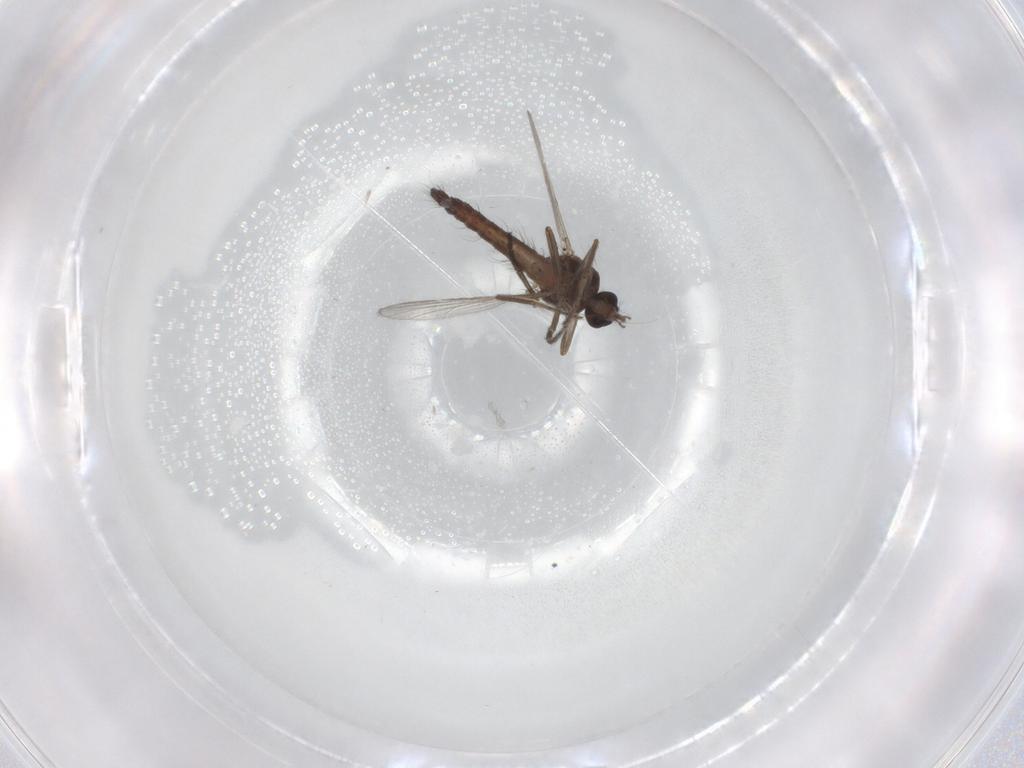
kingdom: Animalia
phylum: Arthropoda
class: Insecta
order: Diptera
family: Ceratopogonidae
